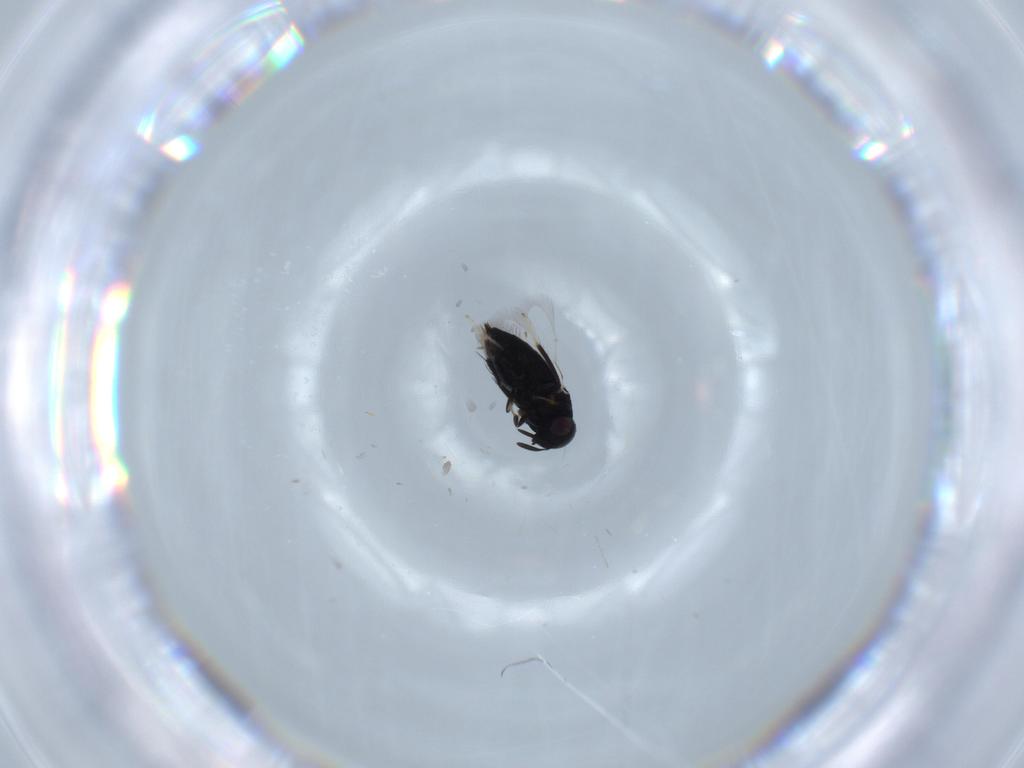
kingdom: Animalia
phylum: Arthropoda
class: Insecta
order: Hymenoptera
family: Signiphoridae
